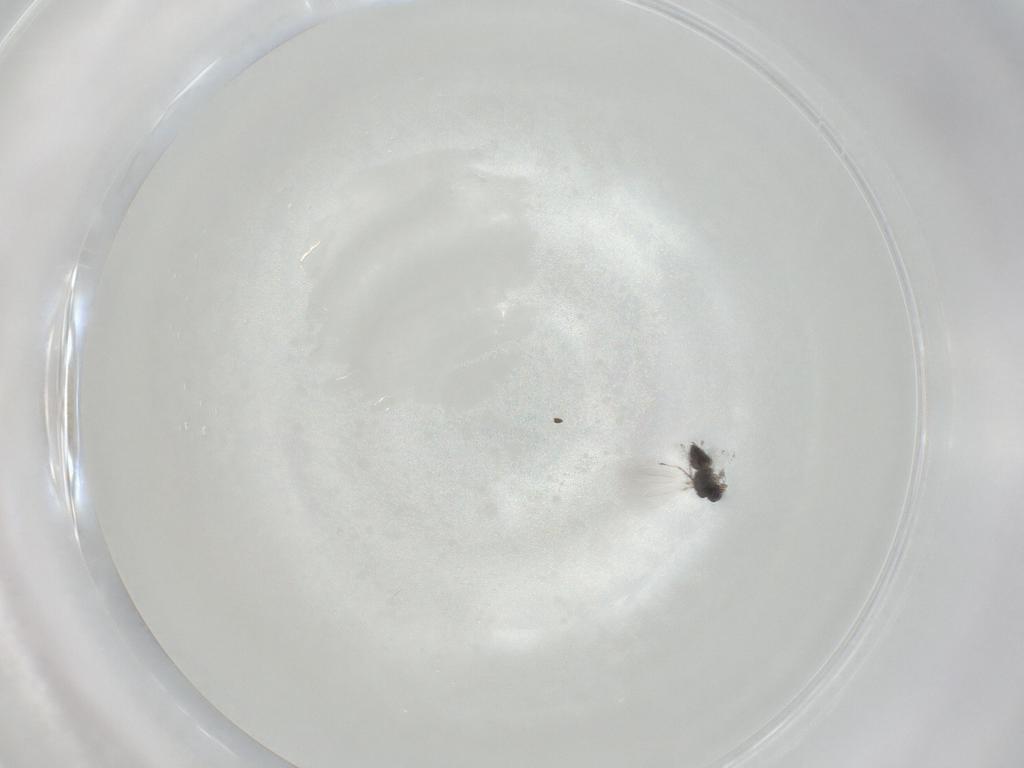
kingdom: Animalia
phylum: Arthropoda
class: Insecta
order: Hymenoptera
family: Mymaridae
